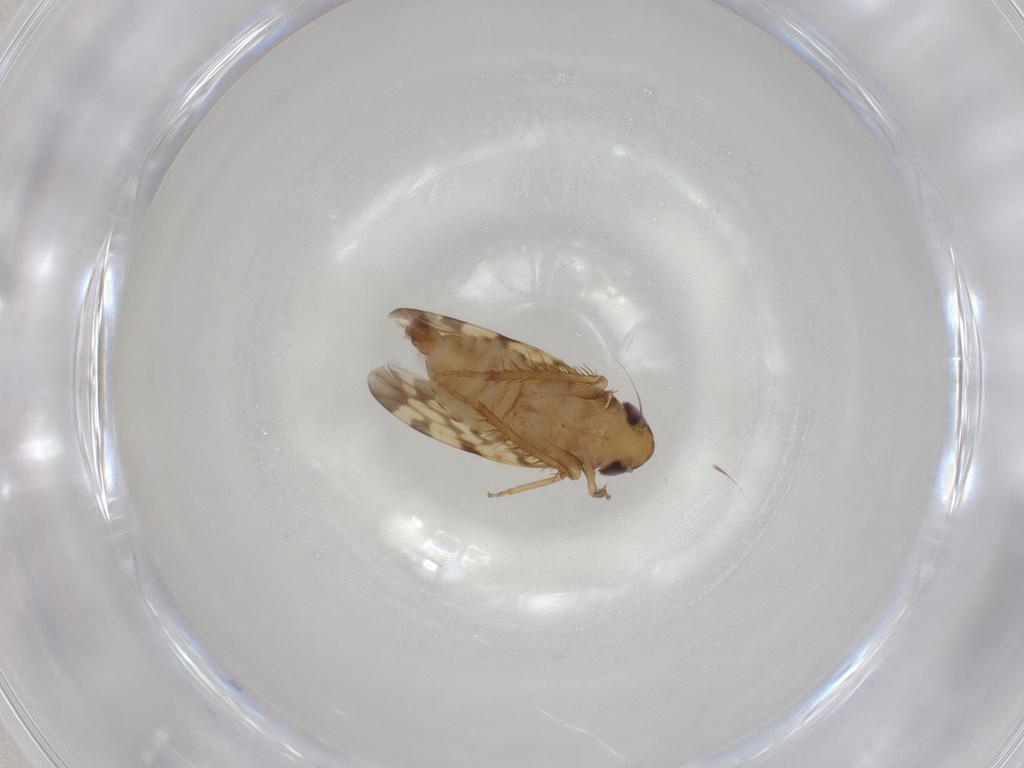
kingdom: Animalia
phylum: Arthropoda
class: Insecta
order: Hemiptera
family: Cicadellidae
